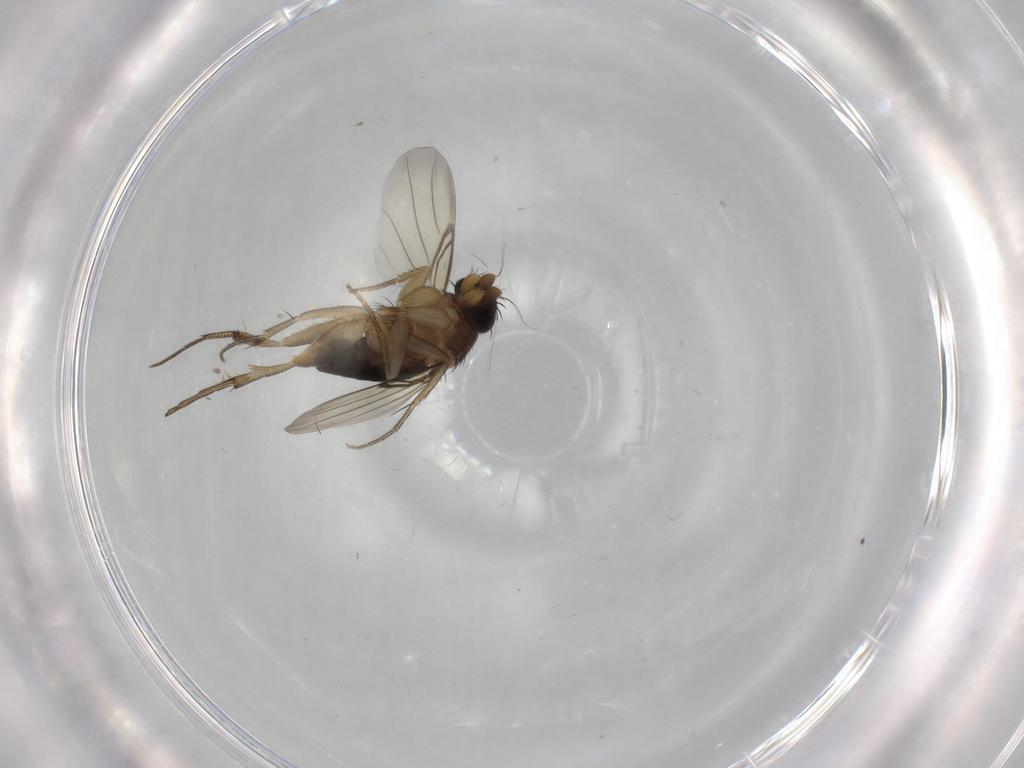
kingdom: Animalia
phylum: Arthropoda
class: Insecta
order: Diptera
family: Phoridae
